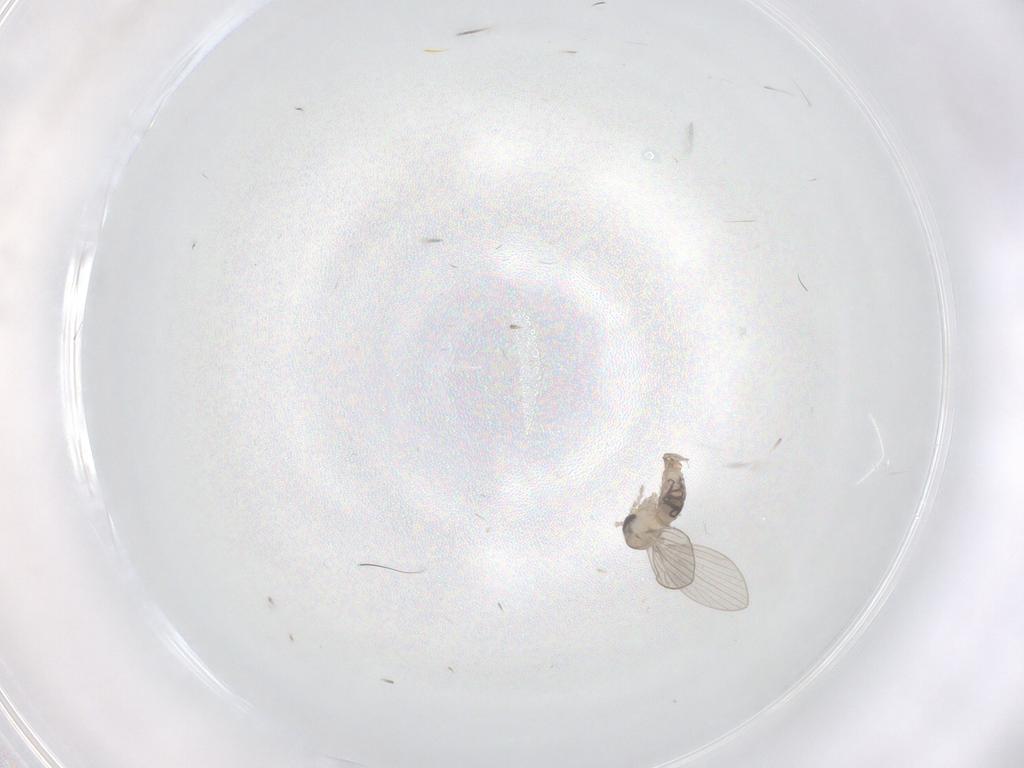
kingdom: Animalia
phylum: Arthropoda
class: Insecta
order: Diptera
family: Psychodidae
